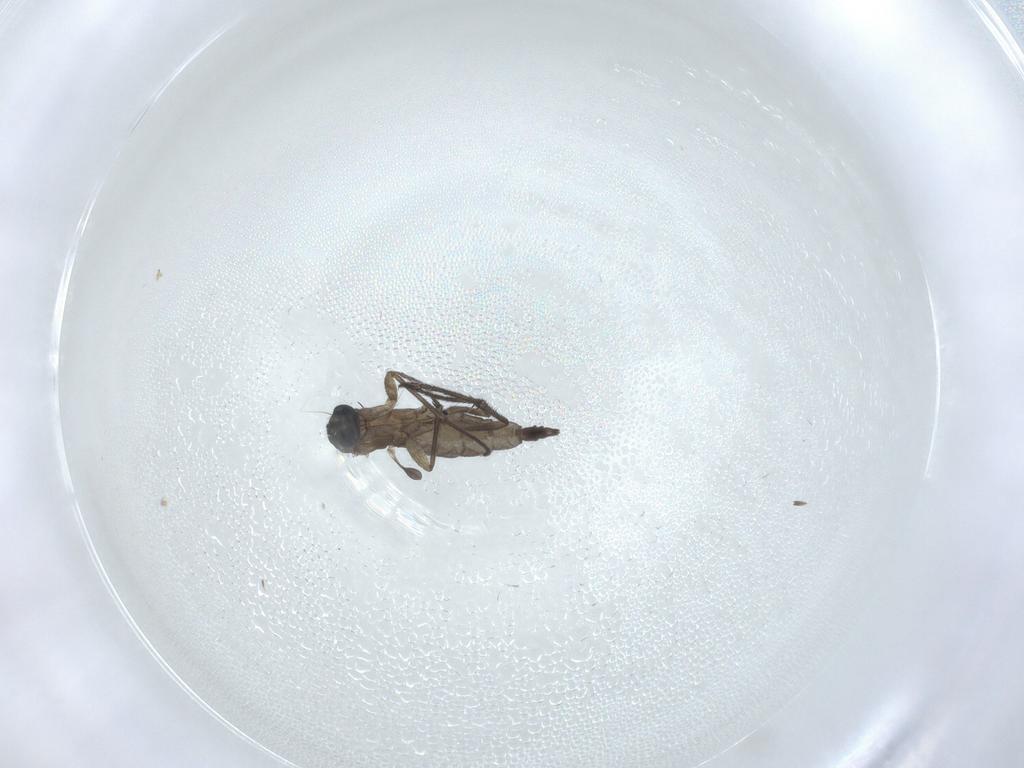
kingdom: Animalia
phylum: Arthropoda
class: Insecta
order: Diptera
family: Sciaridae
